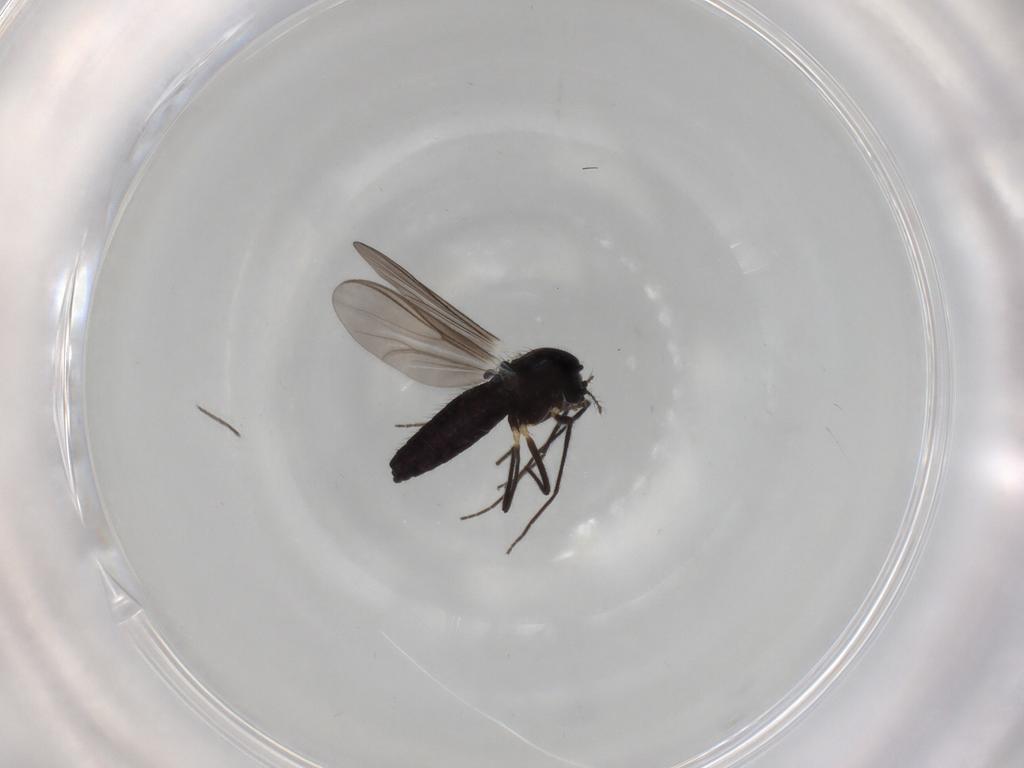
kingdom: Animalia
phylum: Arthropoda
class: Insecta
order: Diptera
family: Chironomidae
